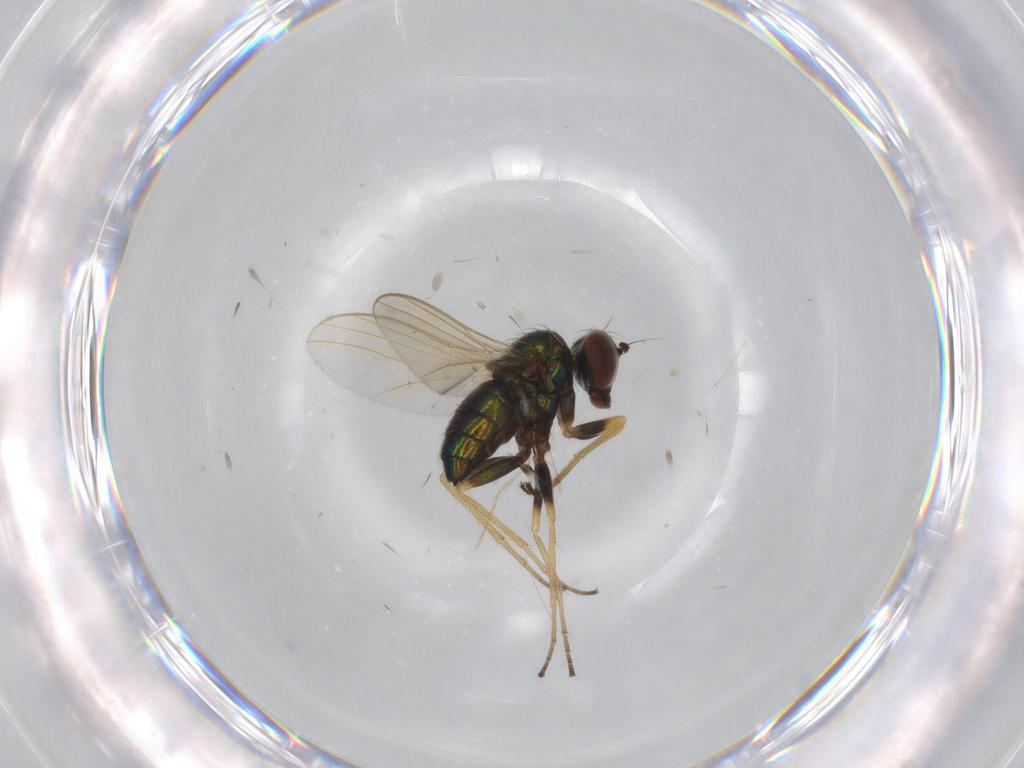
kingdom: Animalia
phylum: Arthropoda
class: Insecta
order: Diptera
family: Dolichopodidae
